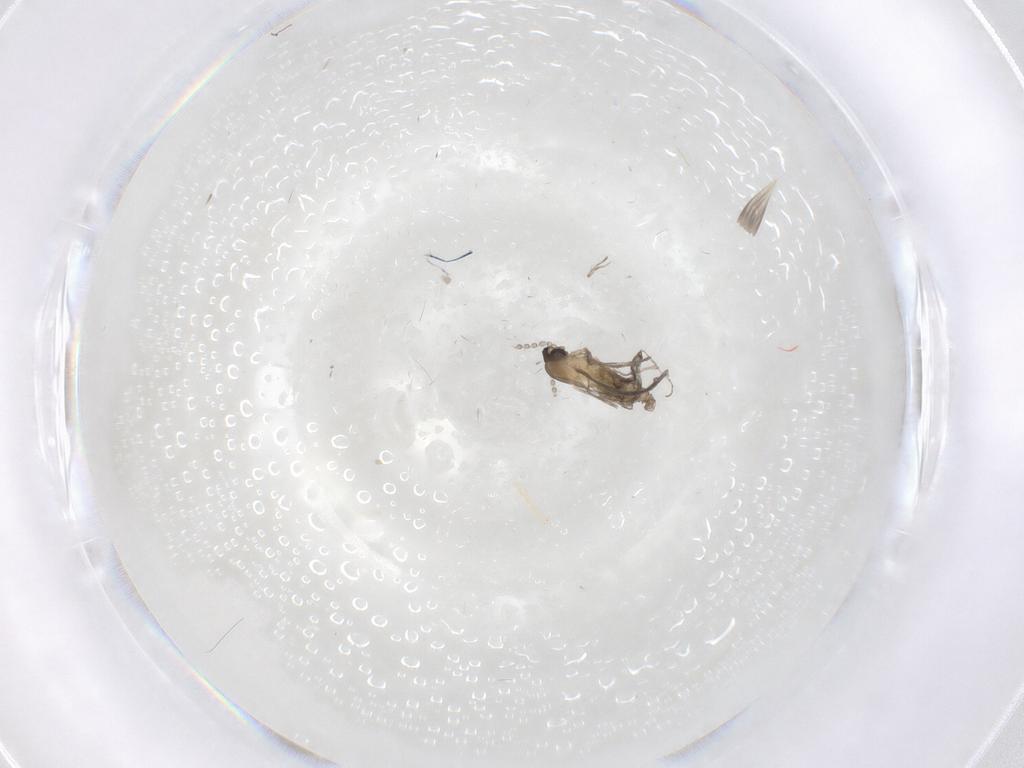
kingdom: Animalia
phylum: Arthropoda
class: Insecta
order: Diptera
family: Cecidomyiidae
